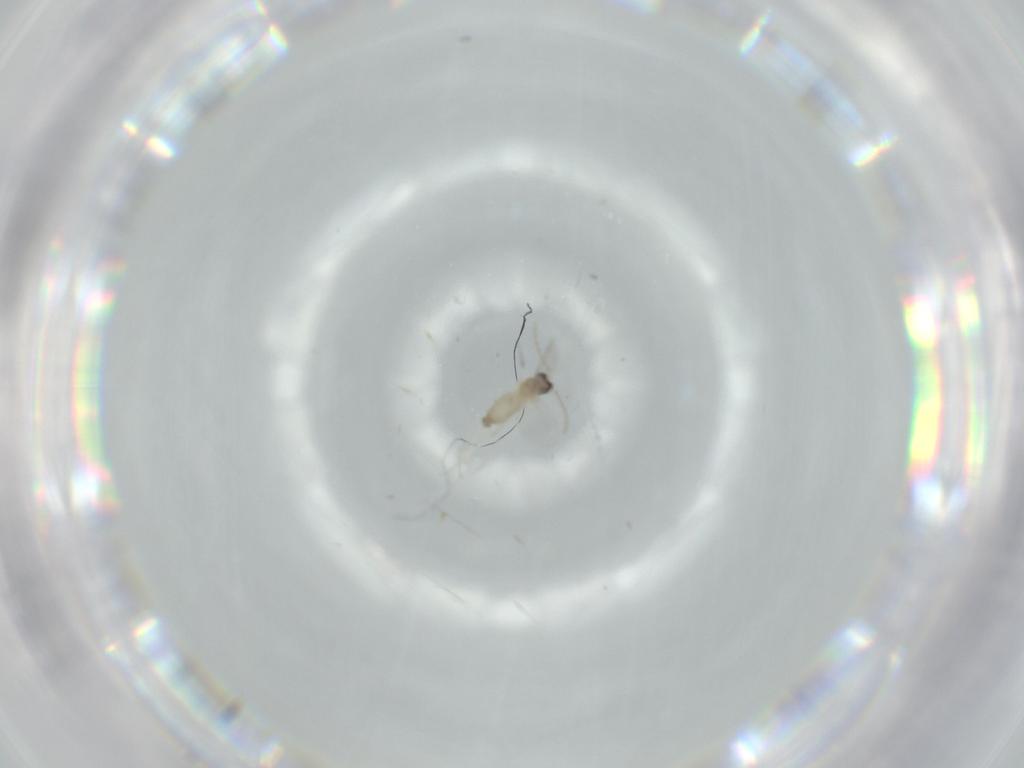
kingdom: Animalia
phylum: Arthropoda
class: Insecta
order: Diptera
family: Cecidomyiidae
